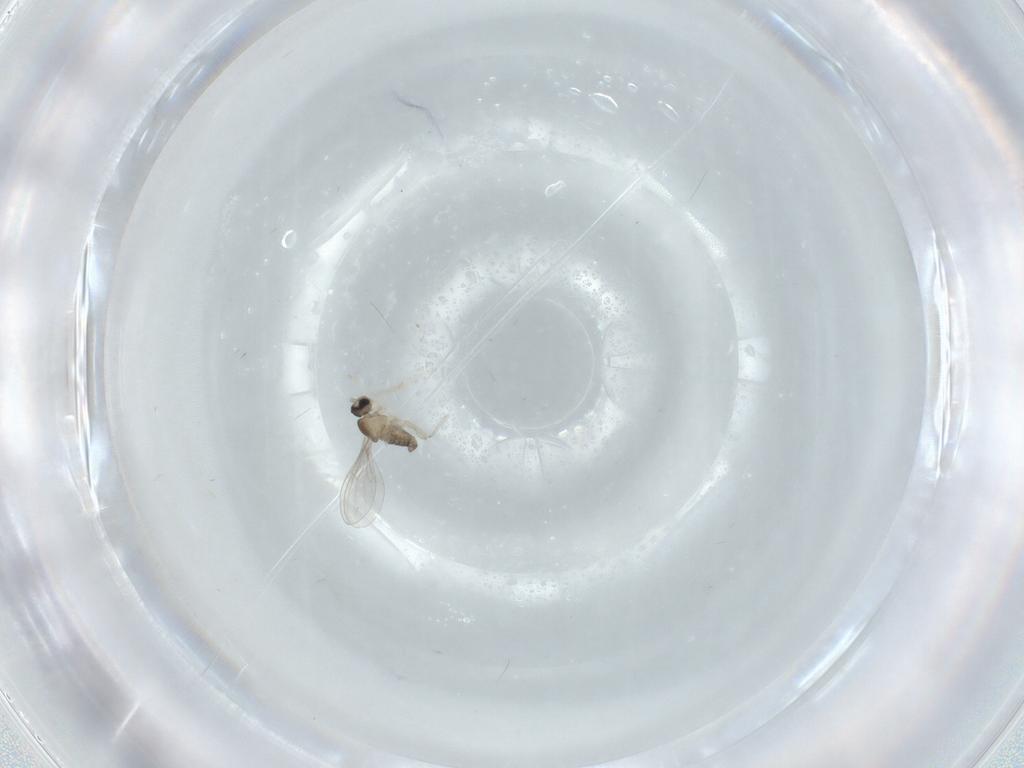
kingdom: Animalia
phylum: Arthropoda
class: Insecta
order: Diptera
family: Cecidomyiidae
